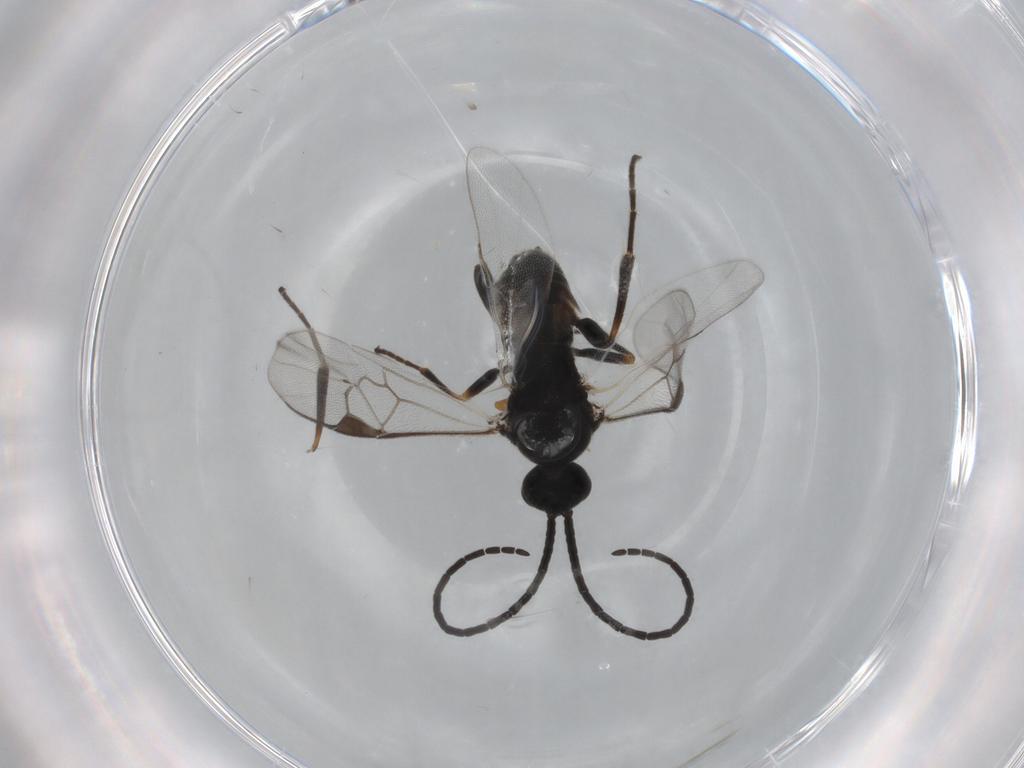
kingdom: Animalia
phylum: Arthropoda
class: Insecta
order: Hymenoptera
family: Braconidae
